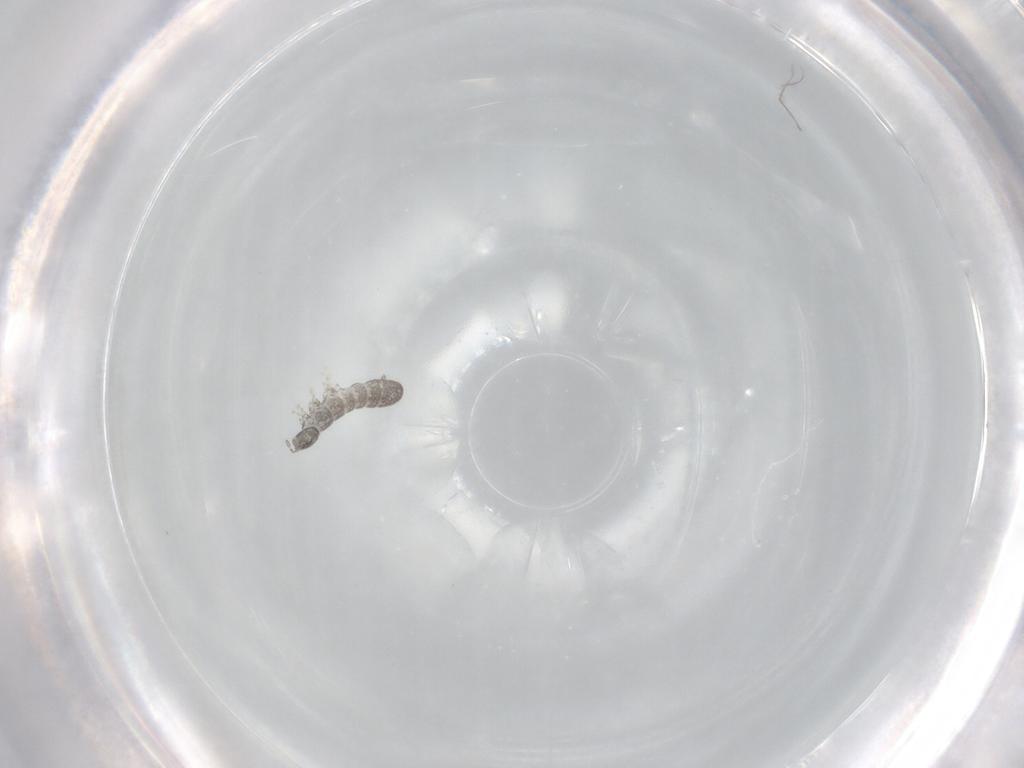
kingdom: Animalia
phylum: Arthropoda
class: Collembola
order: Entomobryomorpha
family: Isotomidae
